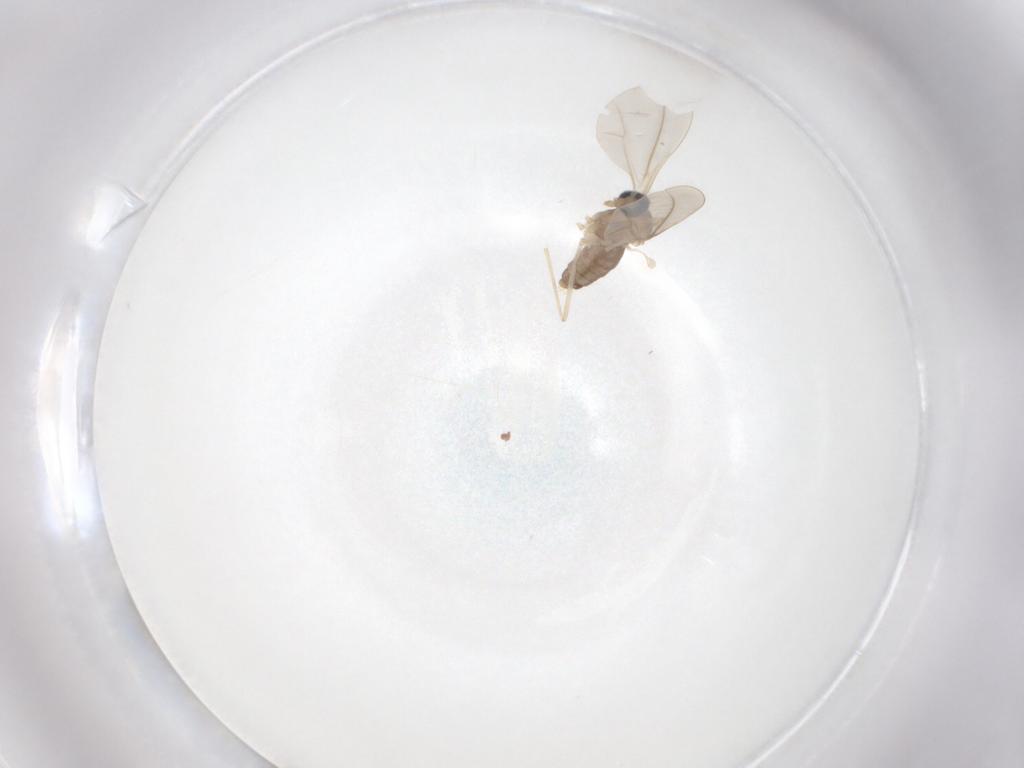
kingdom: Animalia
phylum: Arthropoda
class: Insecta
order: Diptera
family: Cecidomyiidae
